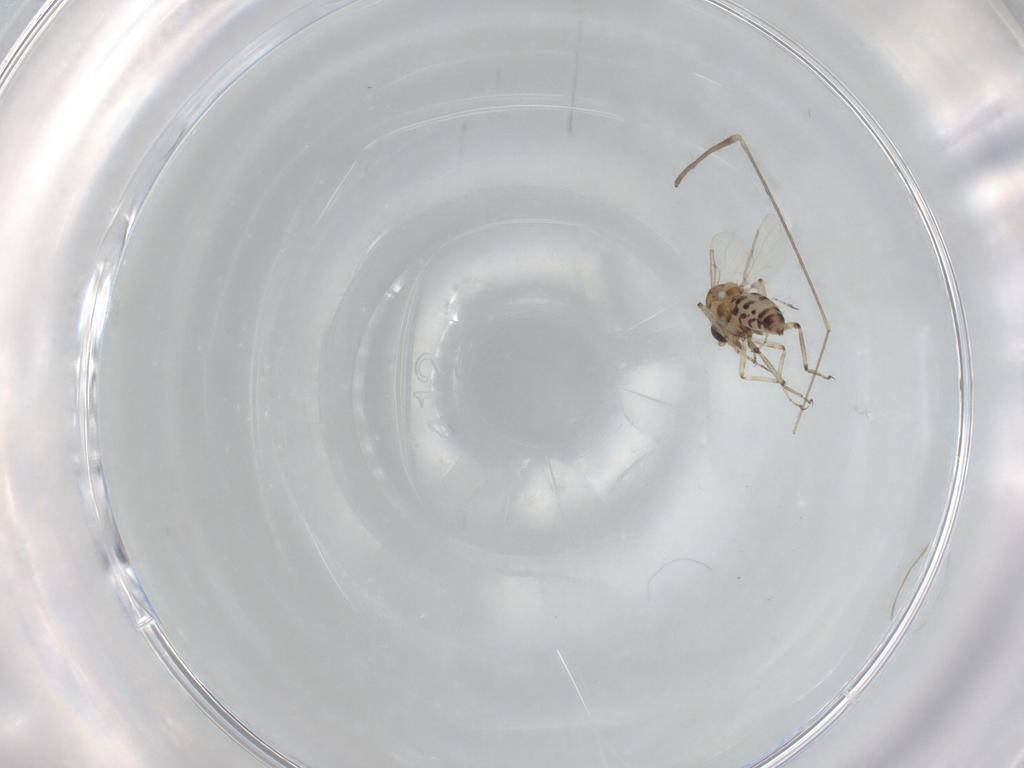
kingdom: Animalia
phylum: Arthropoda
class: Insecta
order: Diptera
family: Ceratopogonidae
